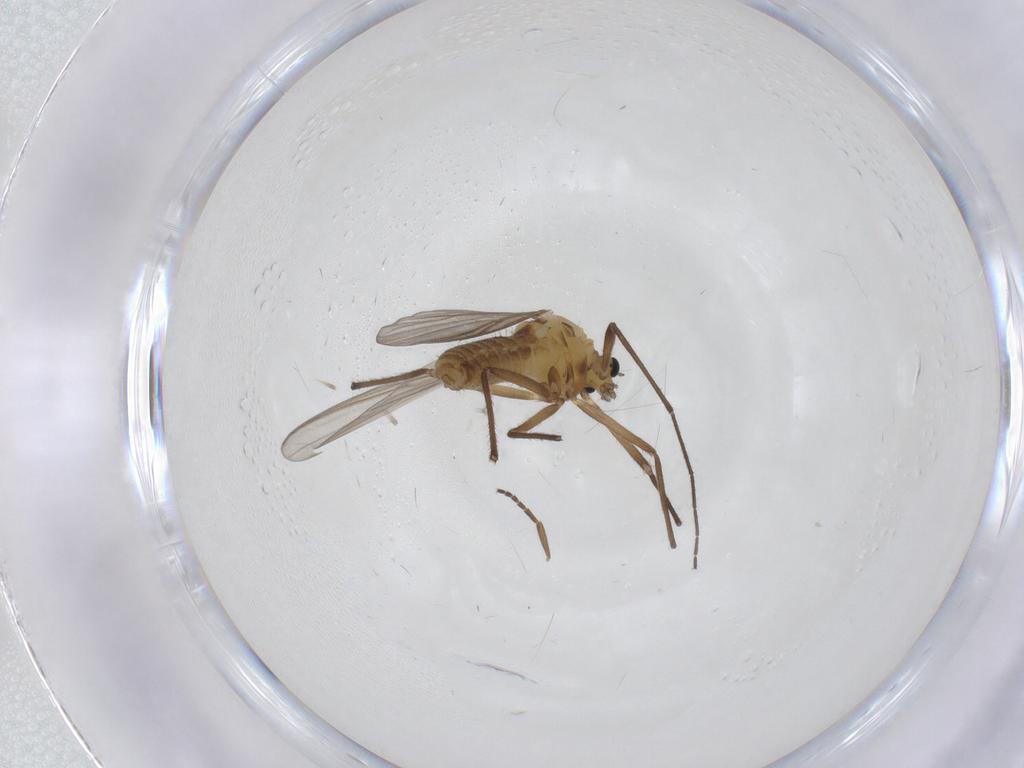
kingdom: Animalia
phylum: Arthropoda
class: Insecta
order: Diptera
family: Chironomidae
